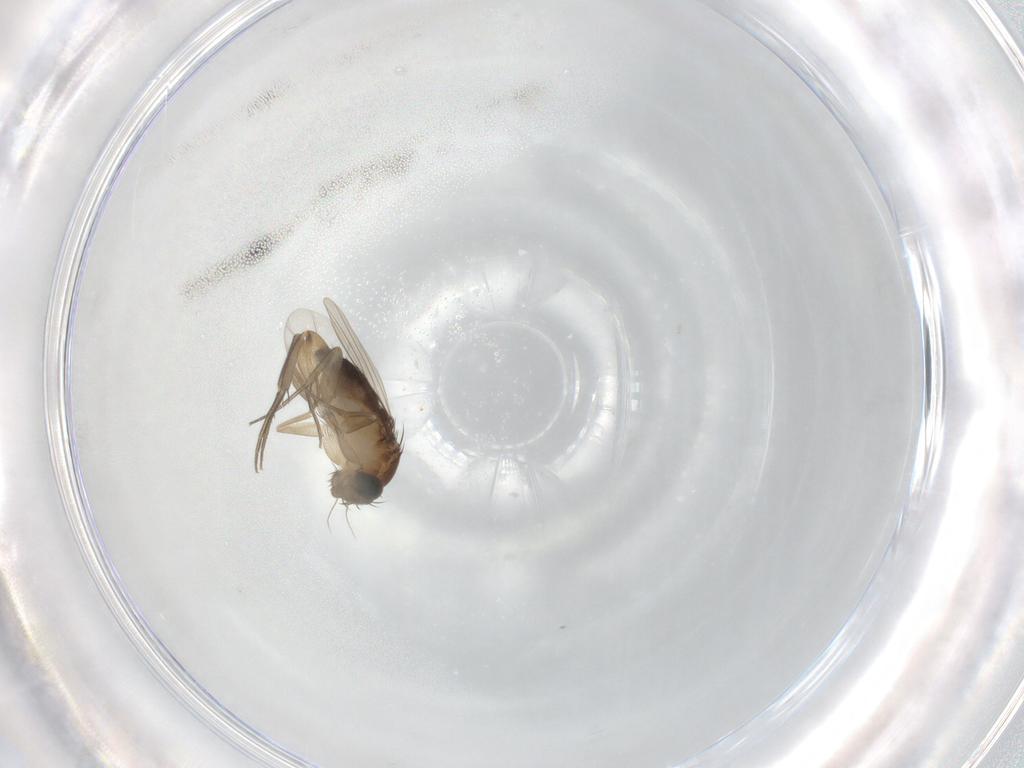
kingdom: Animalia
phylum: Arthropoda
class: Insecta
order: Diptera
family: Phoridae
